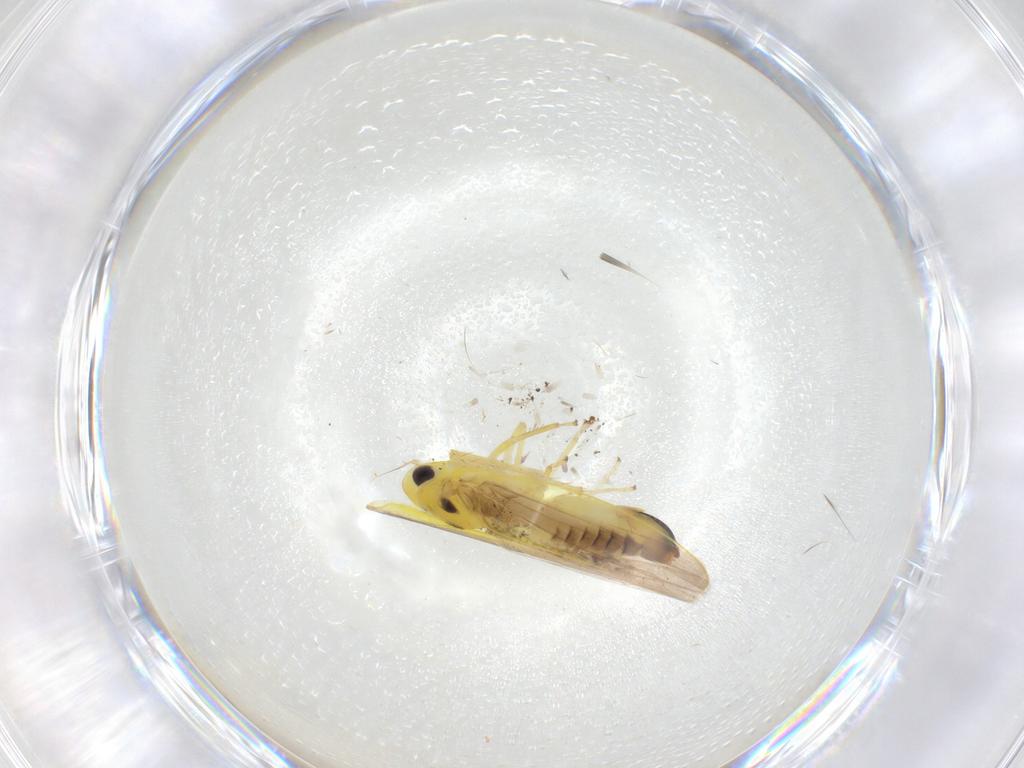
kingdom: Animalia
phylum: Arthropoda
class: Insecta
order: Hemiptera
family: Cicadellidae
